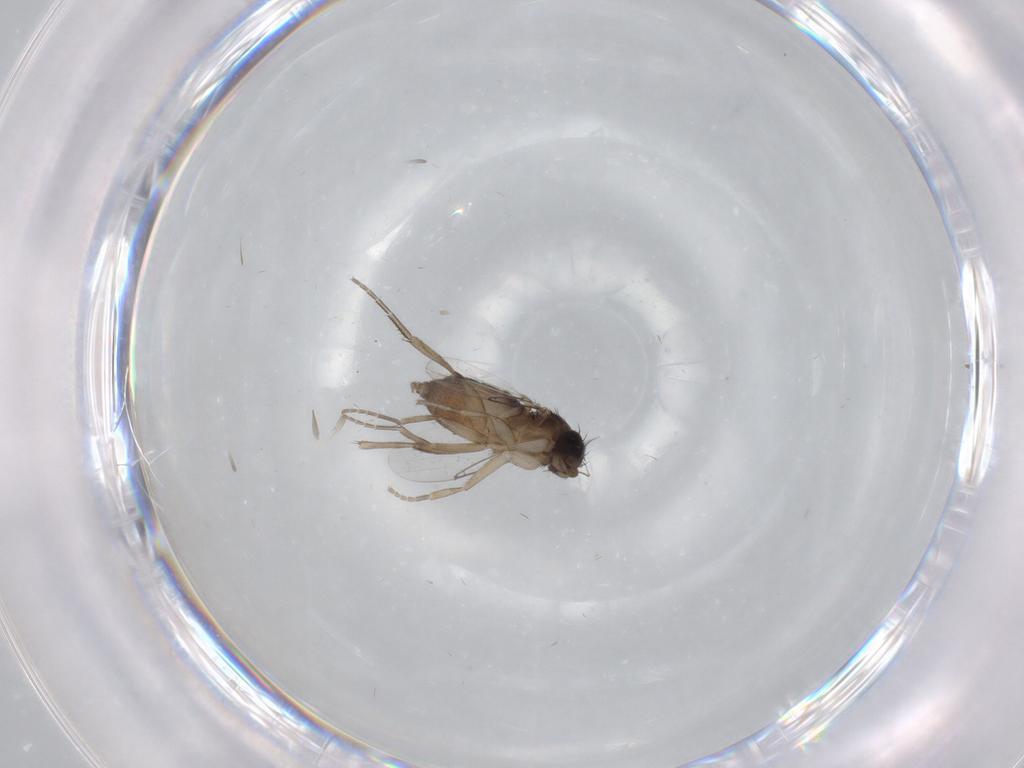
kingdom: Animalia
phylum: Arthropoda
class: Insecta
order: Diptera
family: Phoridae
